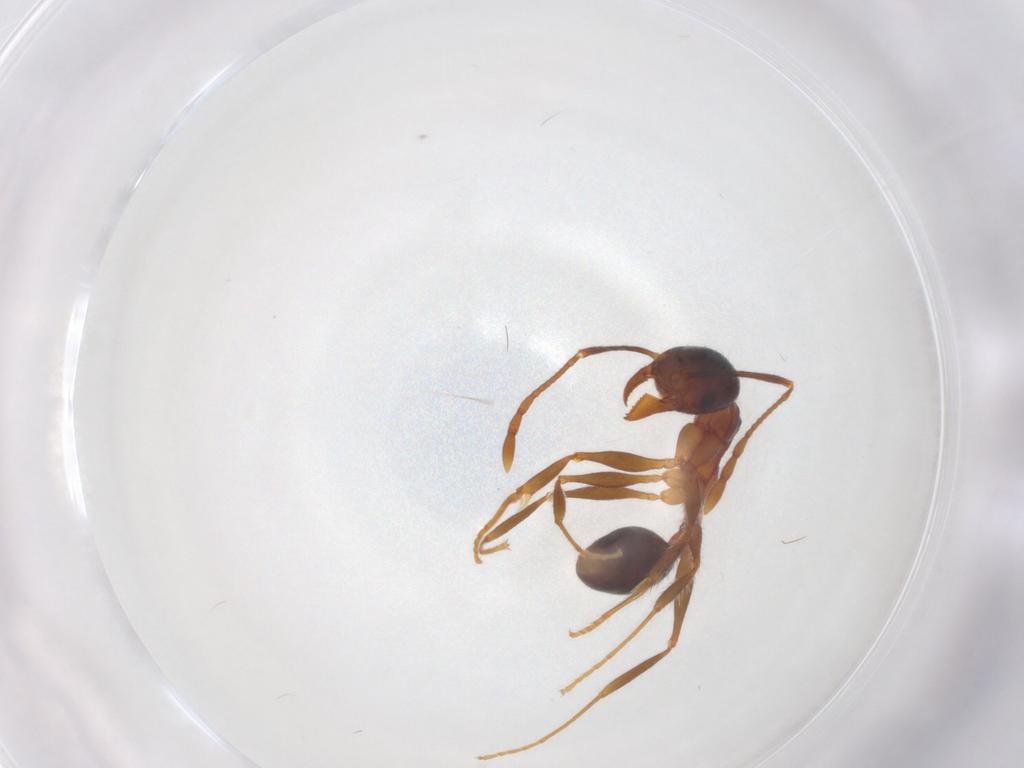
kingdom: Animalia
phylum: Arthropoda
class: Insecta
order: Hymenoptera
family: Formicidae
